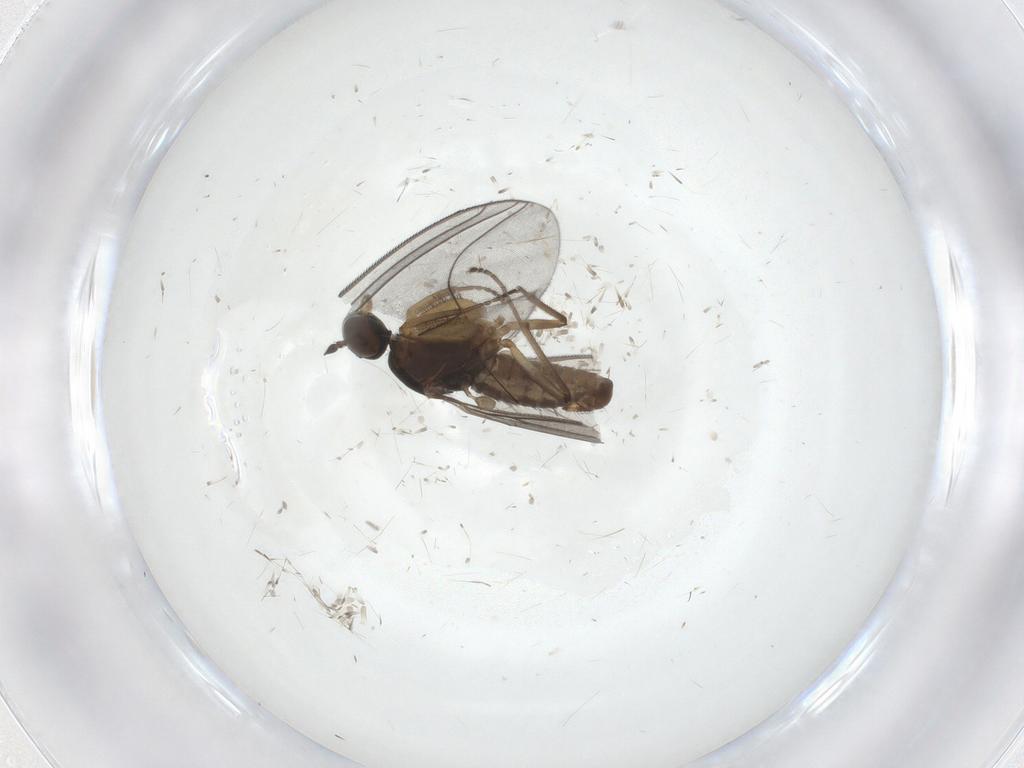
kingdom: Animalia
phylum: Arthropoda
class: Insecta
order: Diptera
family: Empididae
